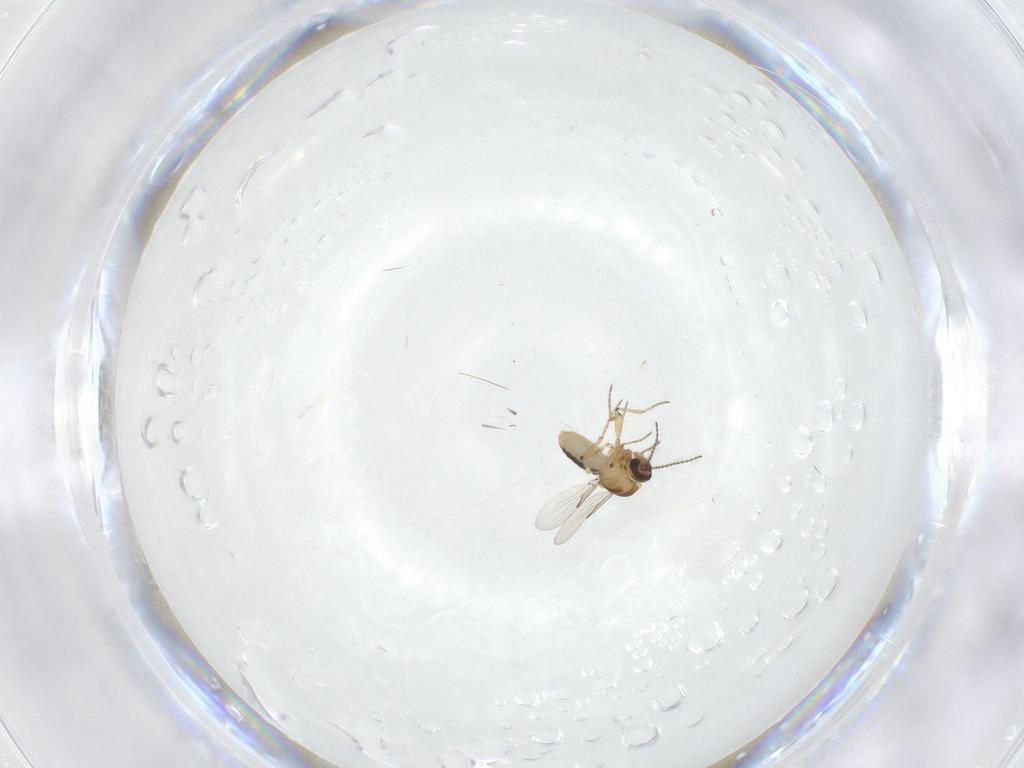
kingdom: Animalia
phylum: Arthropoda
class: Insecta
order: Diptera
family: Ceratopogonidae
